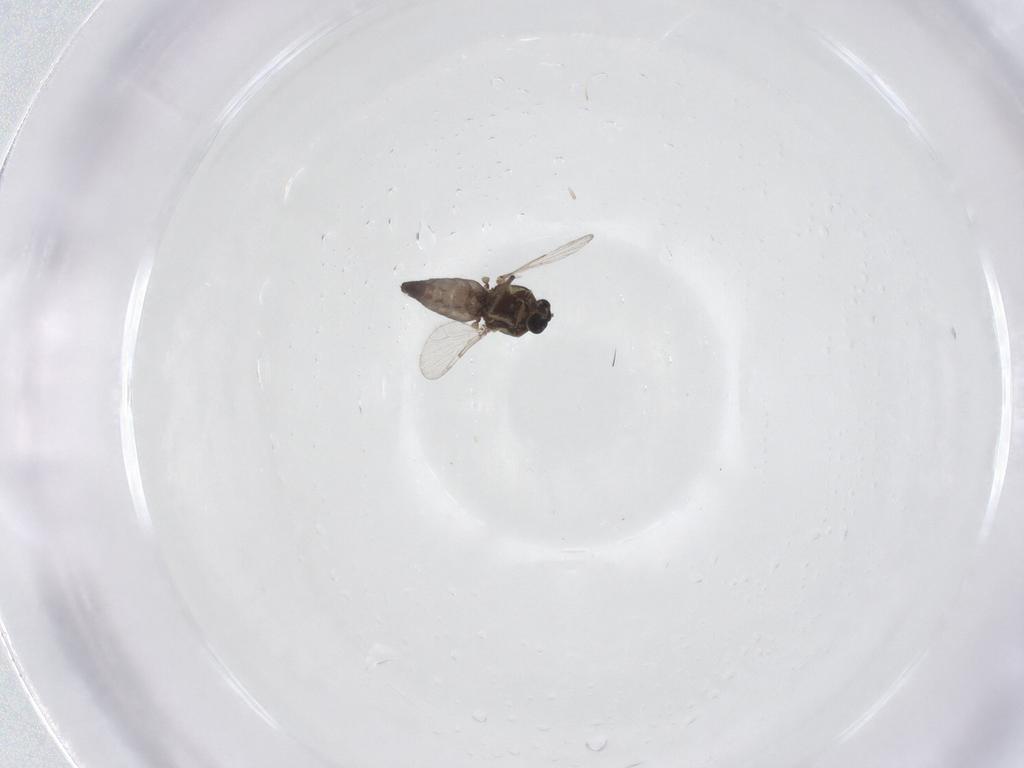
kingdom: Animalia
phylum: Arthropoda
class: Insecta
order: Diptera
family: Ceratopogonidae
